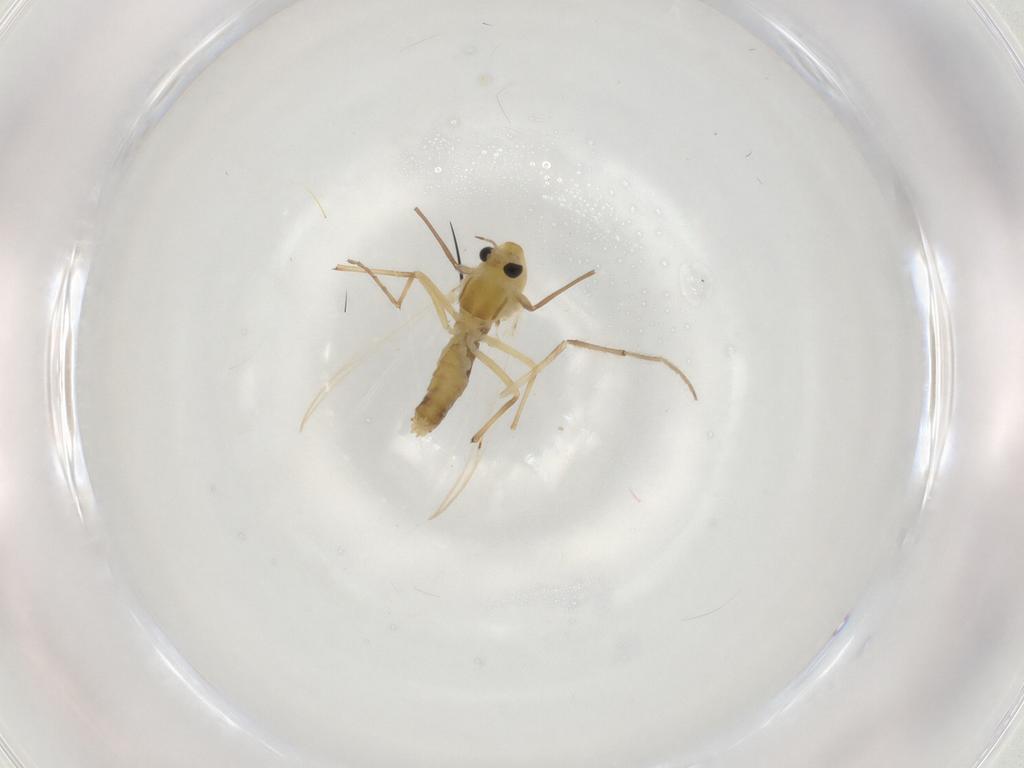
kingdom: Animalia
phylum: Arthropoda
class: Insecta
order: Diptera
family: Chironomidae
